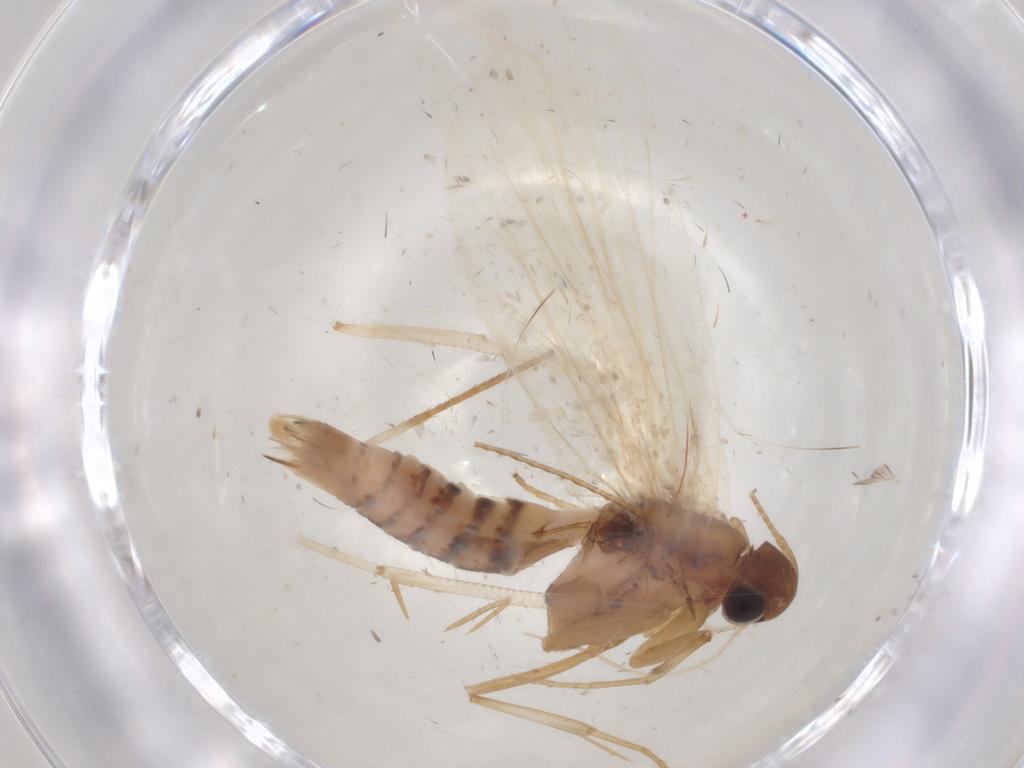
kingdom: Animalia
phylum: Arthropoda
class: Insecta
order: Lepidoptera
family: Gelechiidae
